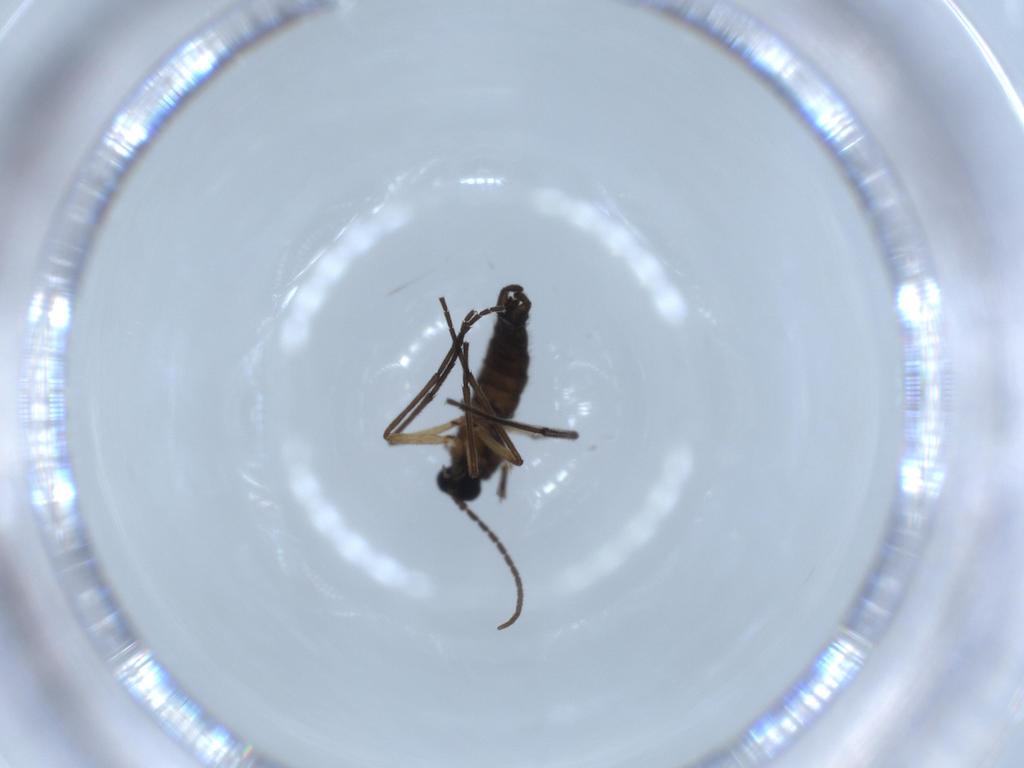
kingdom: Animalia
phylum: Arthropoda
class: Insecta
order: Diptera
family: Sciaridae
